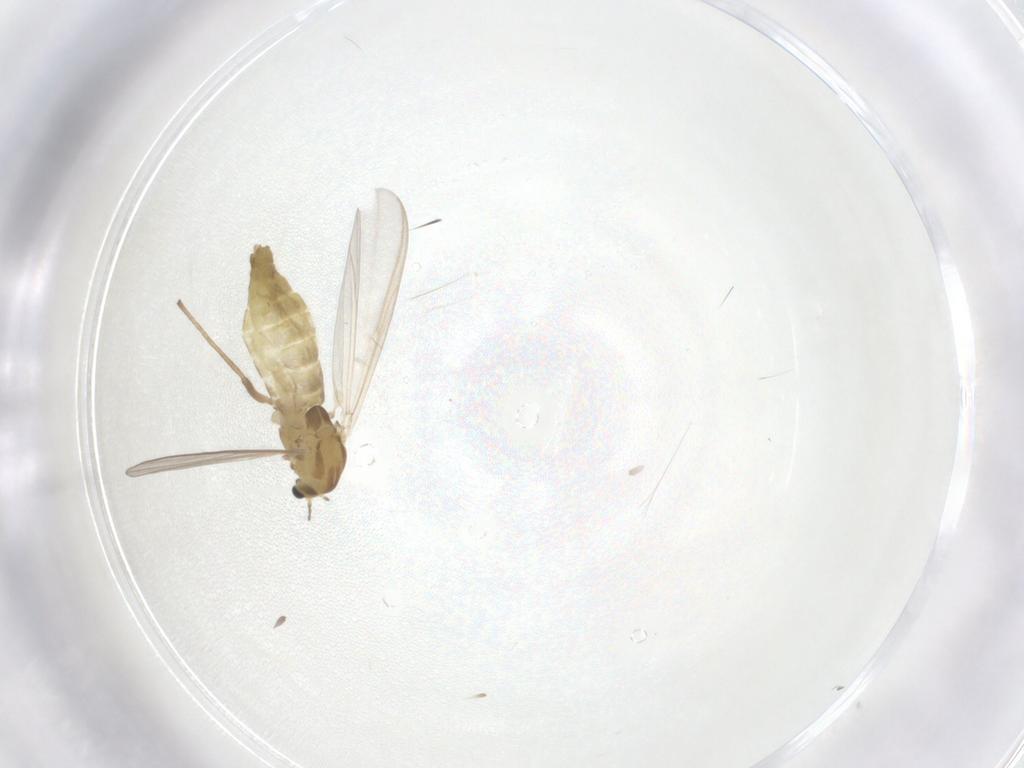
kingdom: Animalia
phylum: Arthropoda
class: Insecta
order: Diptera
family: Chironomidae
